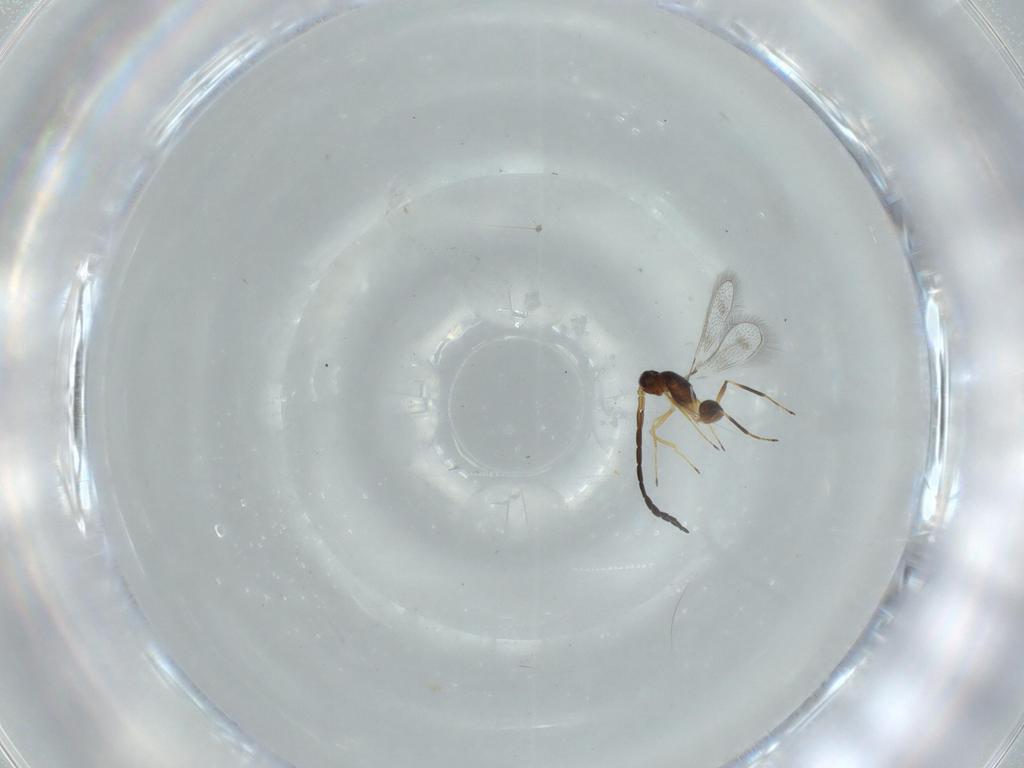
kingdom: Animalia
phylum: Arthropoda
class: Insecta
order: Hymenoptera
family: Mymaridae
